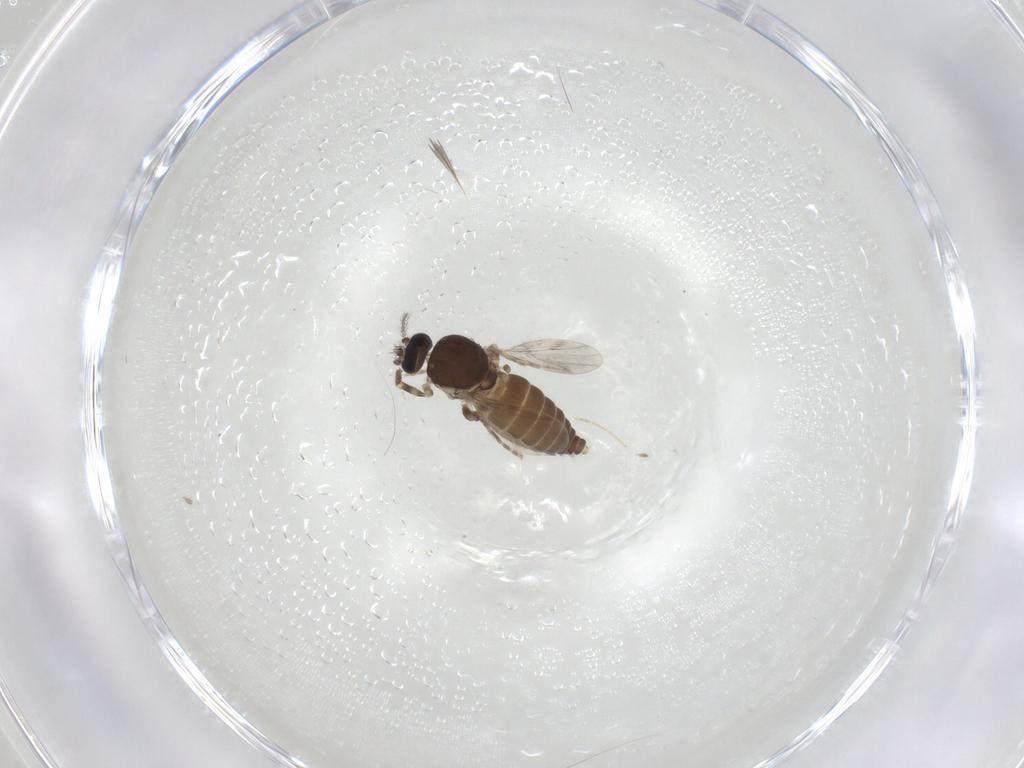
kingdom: Animalia
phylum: Arthropoda
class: Insecta
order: Diptera
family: Ceratopogonidae
